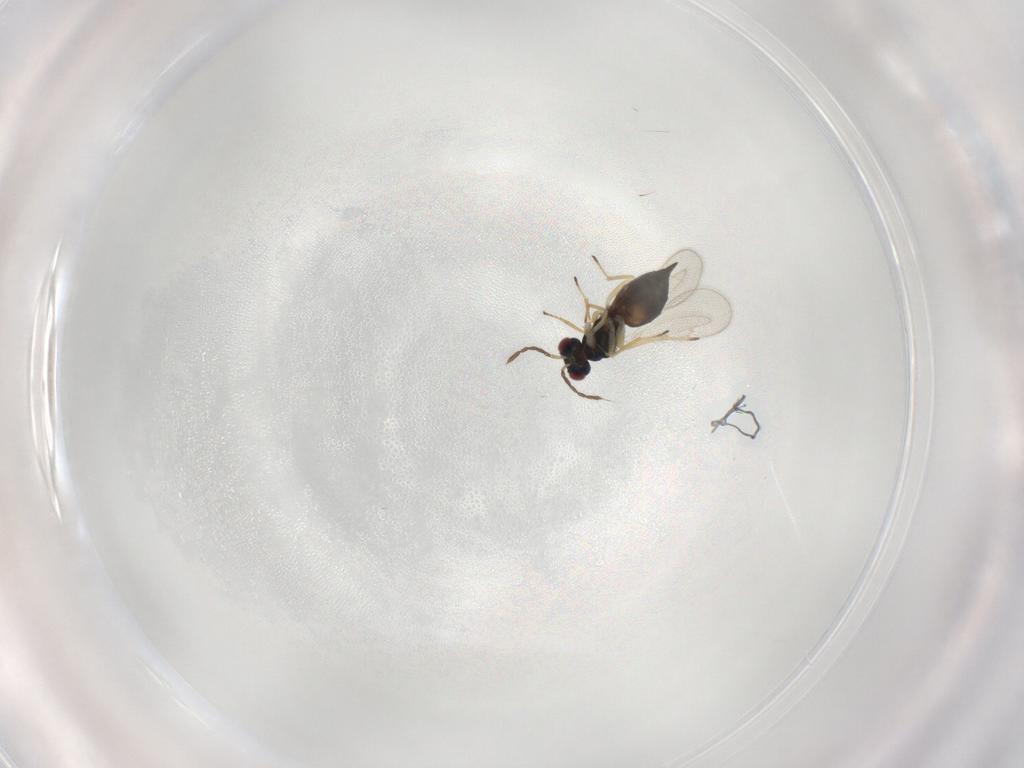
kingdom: Animalia
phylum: Arthropoda
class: Insecta
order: Hymenoptera
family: Eulophidae
